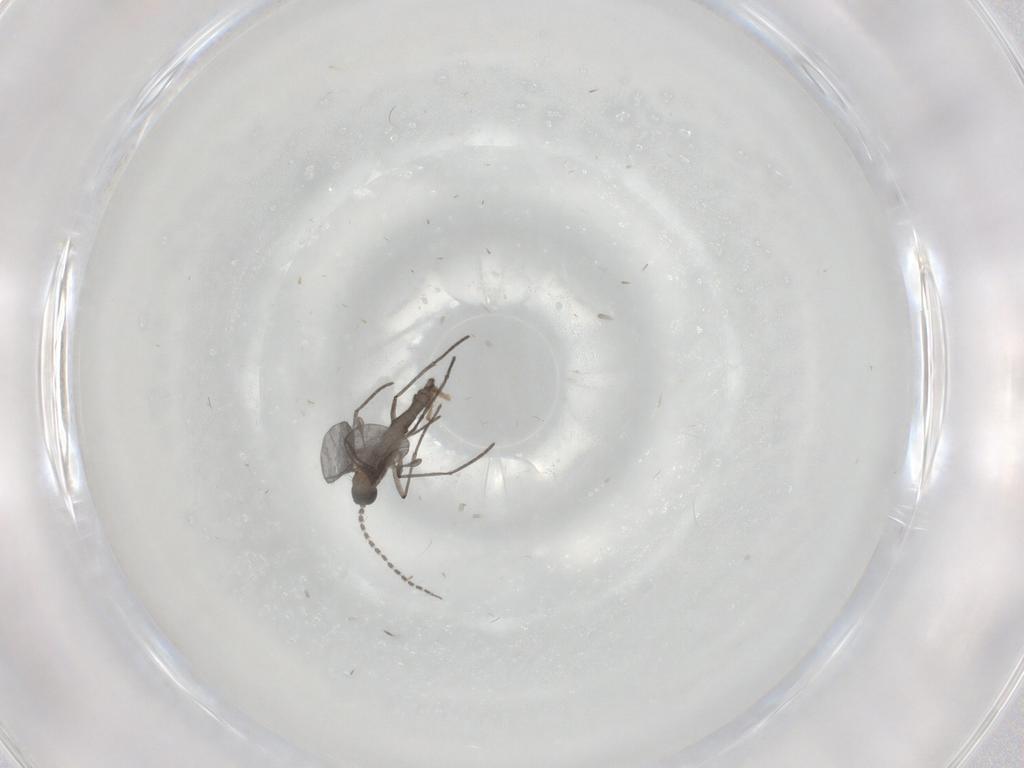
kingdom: Animalia
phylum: Arthropoda
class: Insecta
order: Diptera
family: Chironomidae
